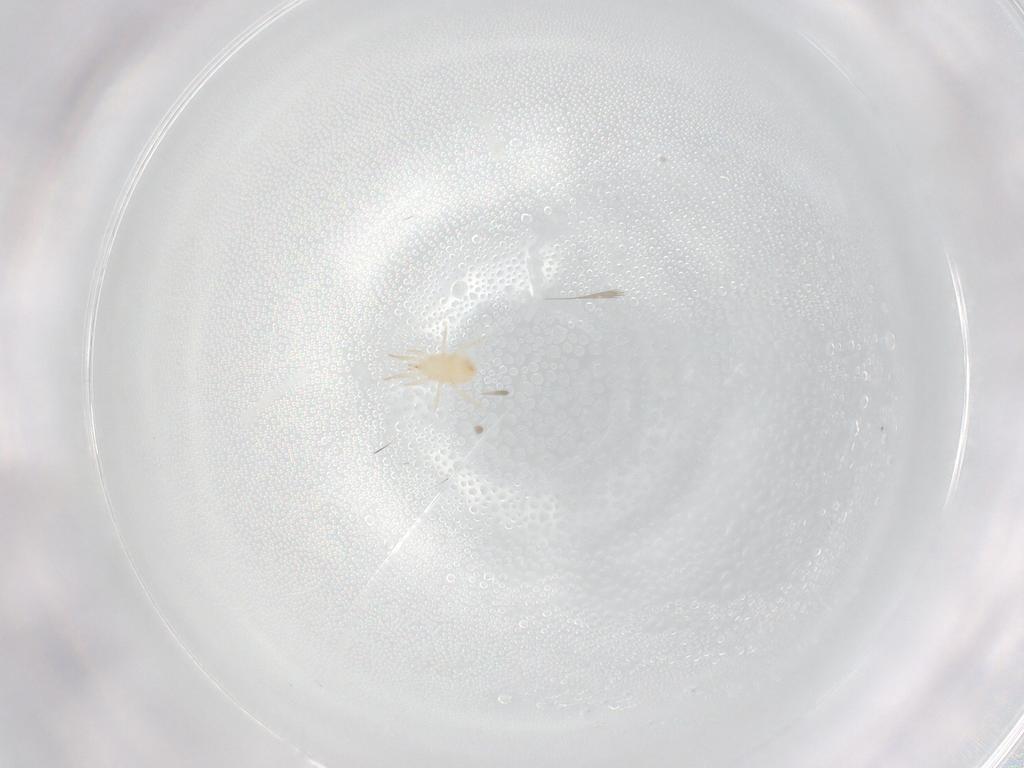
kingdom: Animalia
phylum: Arthropoda
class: Arachnida
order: Mesostigmata
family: Phytoseiidae
